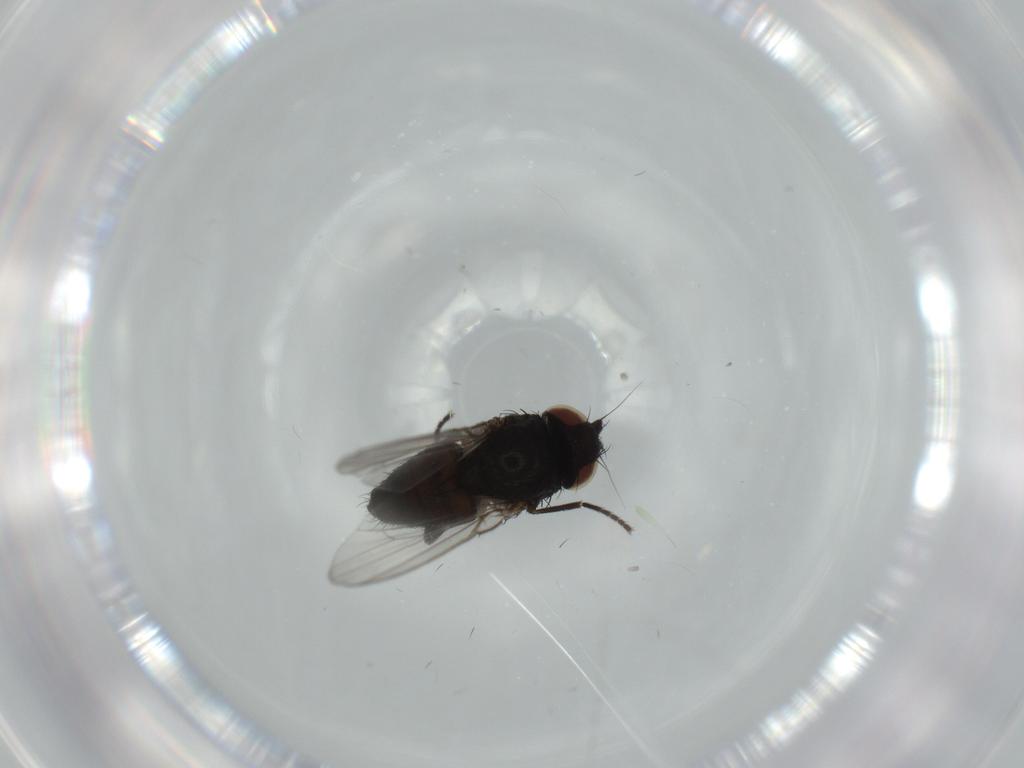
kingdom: Animalia
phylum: Arthropoda
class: Insecta
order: Diptera
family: Milichiidae
